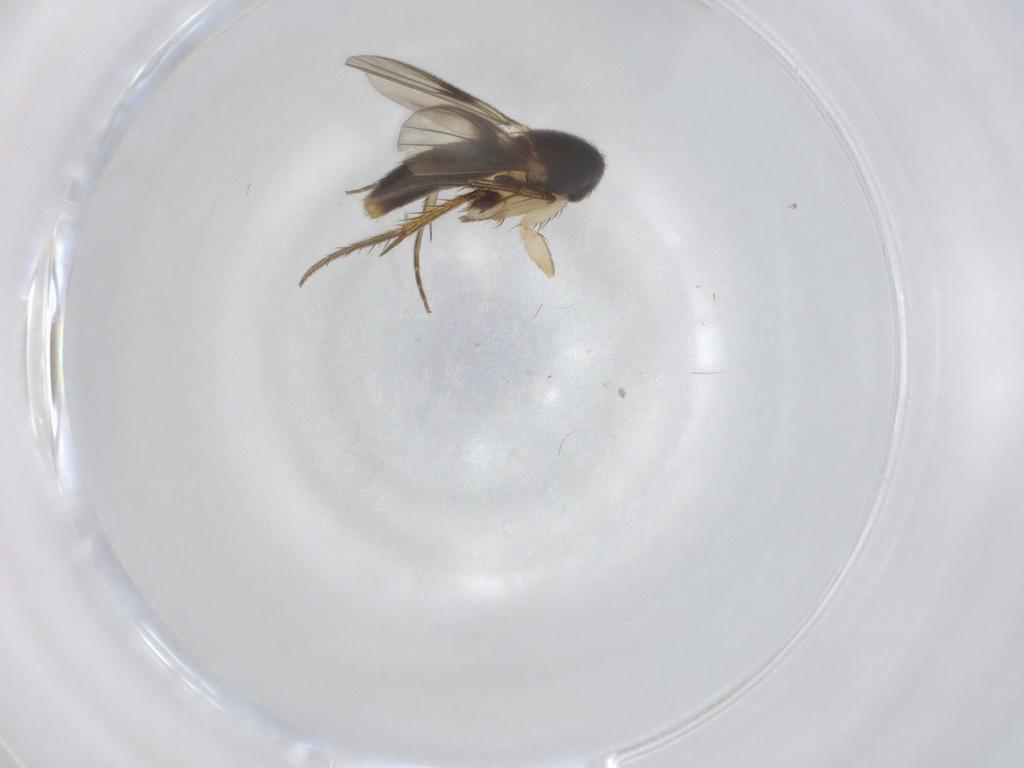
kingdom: Animalia
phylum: Arthropoda
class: Insecta
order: Diptera
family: Mycetophilidae
